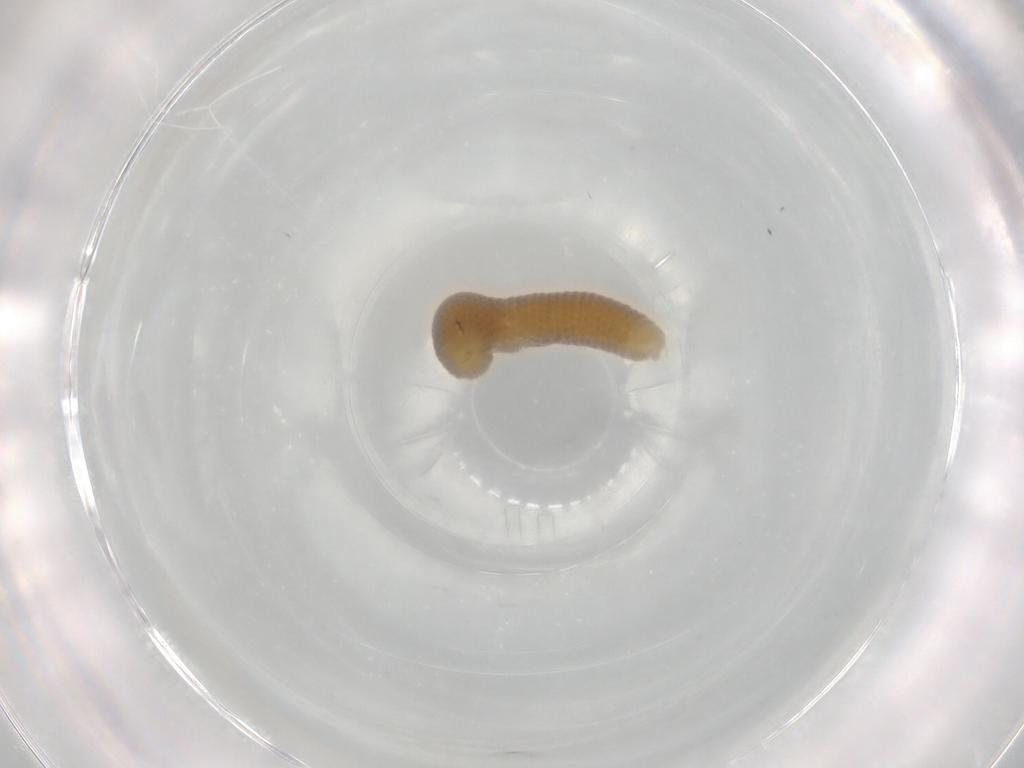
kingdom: Animalia
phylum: Arthropoda
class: Insecta
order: Diptera
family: Chironomidae
